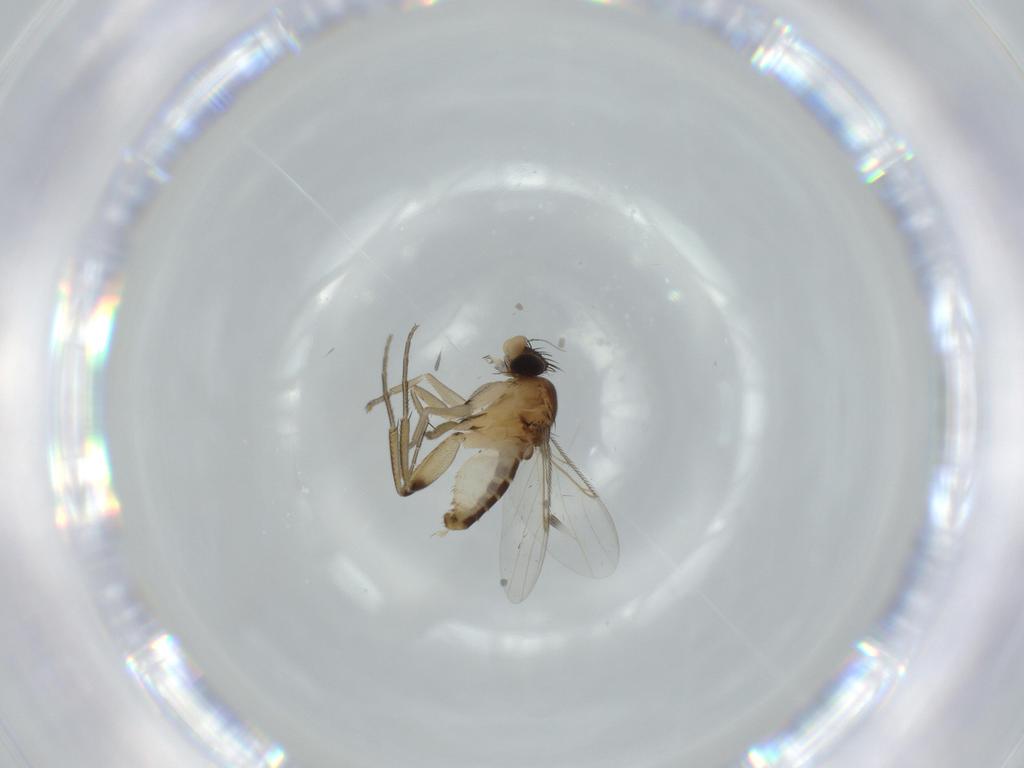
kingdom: Animalia
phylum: Arthropoda
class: Insecta
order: Diptera
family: Phoridae
